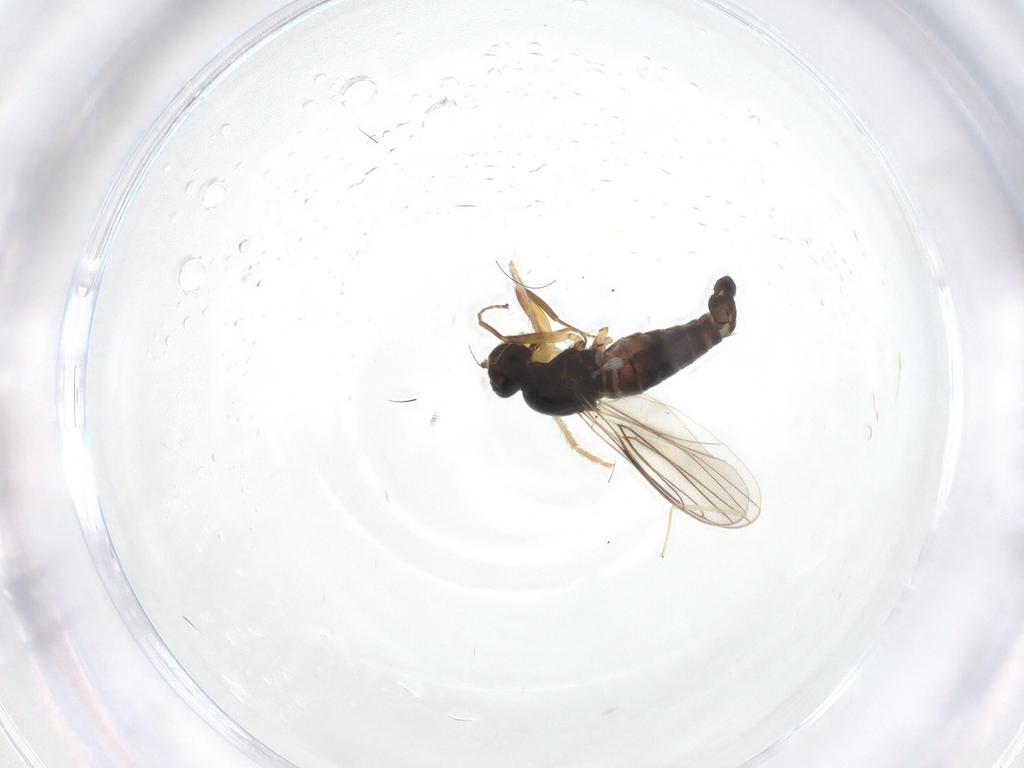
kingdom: Animalia
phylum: Arthropoda
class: Insecta
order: Diptera
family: Hybotidae
